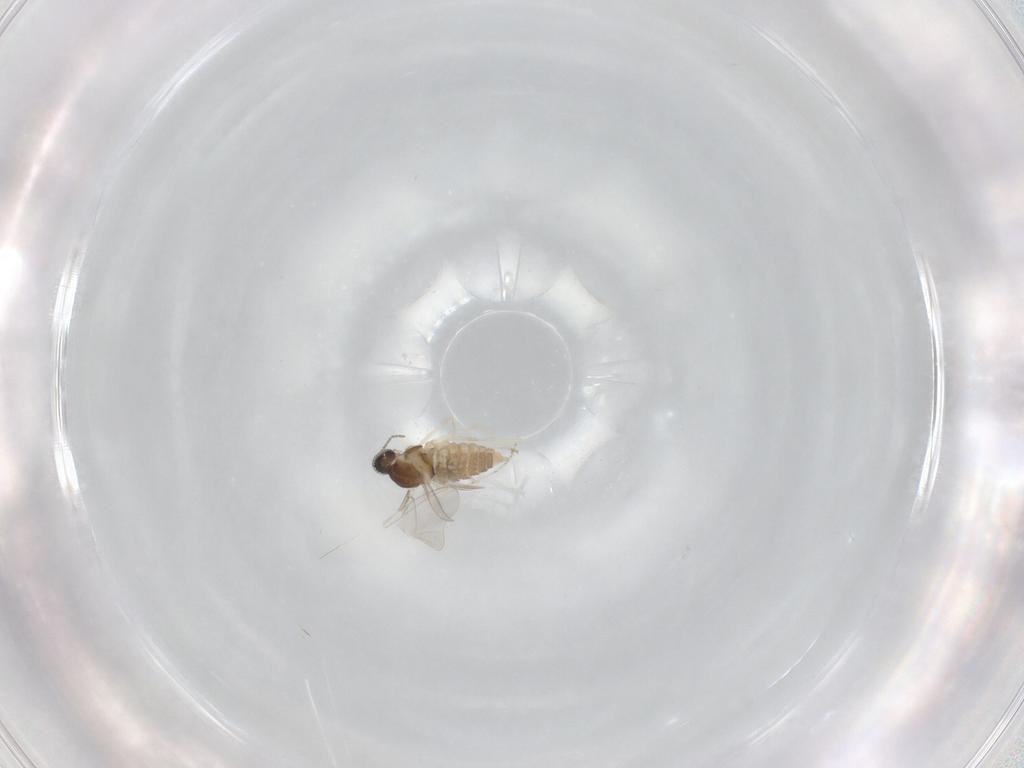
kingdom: Animalia
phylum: Arthropoda
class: Insecta
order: Diptera
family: Cecidomyiidae
